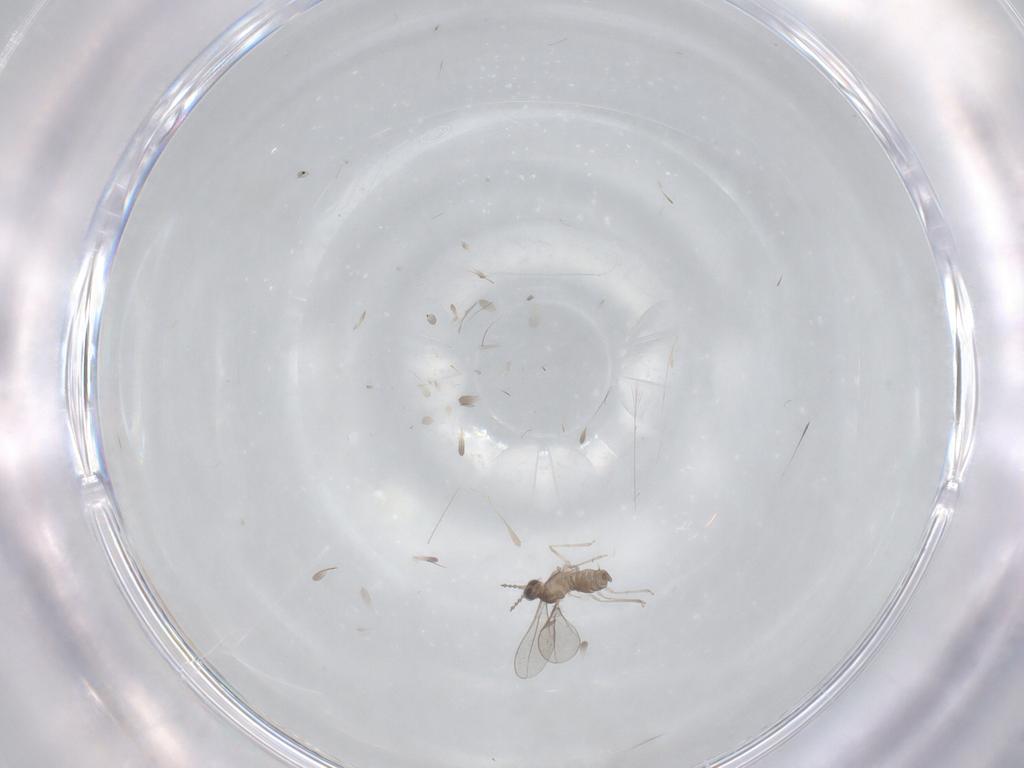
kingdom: Animalia
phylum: Arthropoda
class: Insecta
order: Diptera
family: Cecidomyiidae
